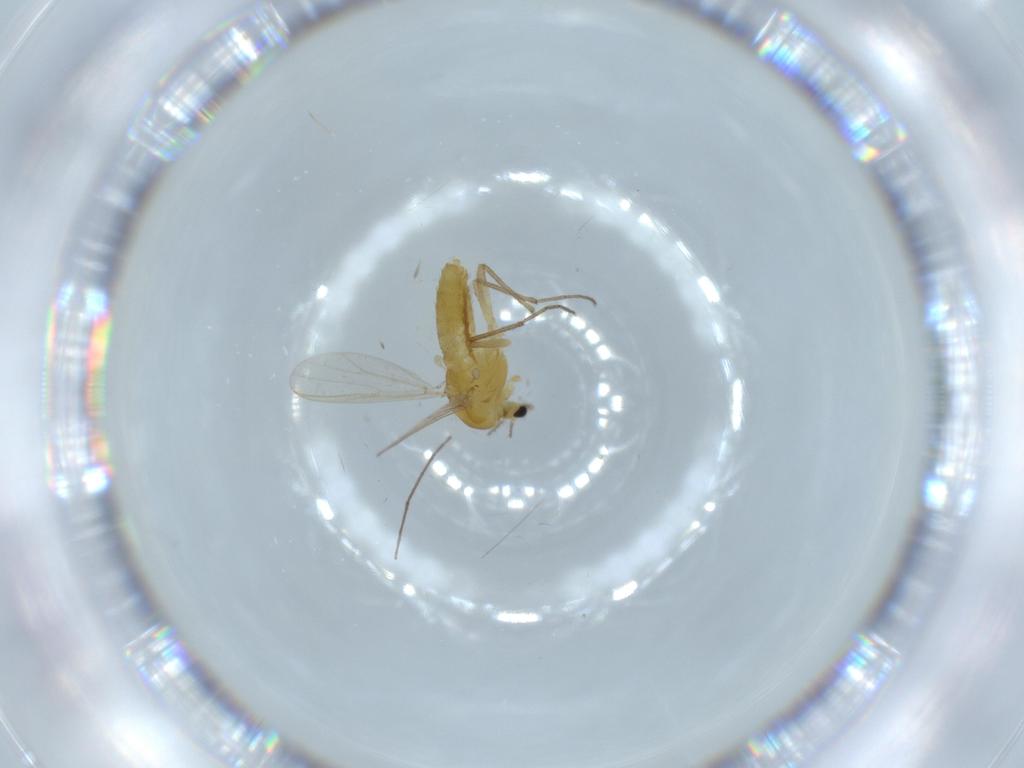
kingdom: Animalia
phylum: Arthropoda
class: Insecta
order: Diptera
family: Chironomidae
